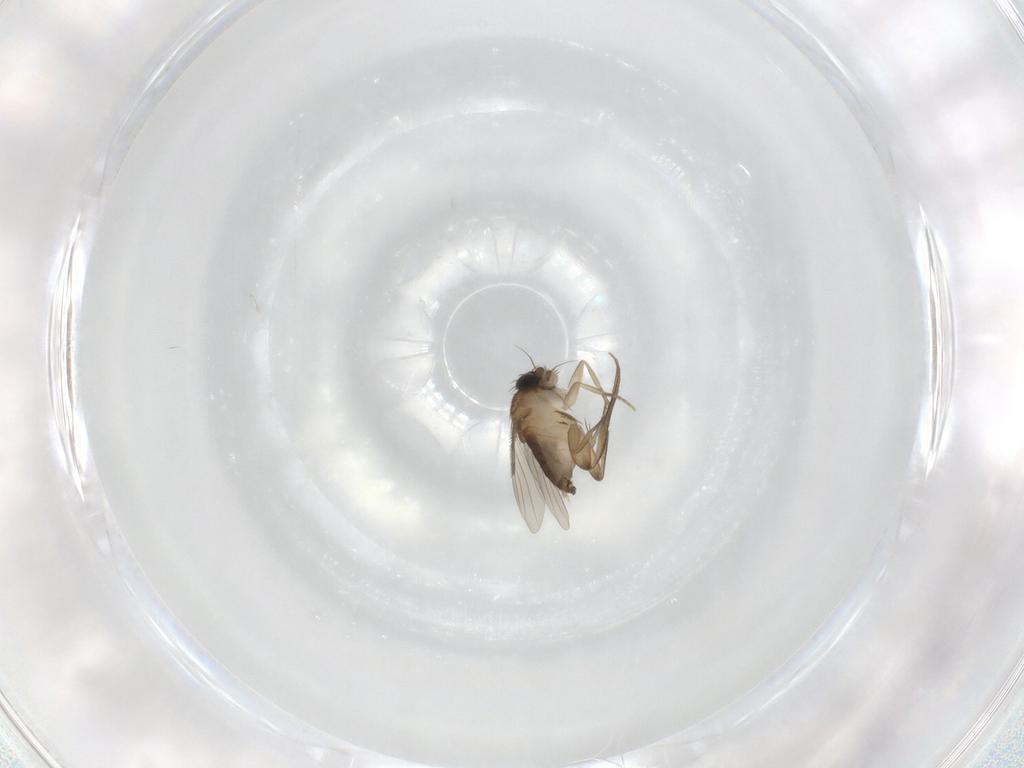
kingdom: Animalia
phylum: Arthropoda
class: Insecta
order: Diptera
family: Phoridae
